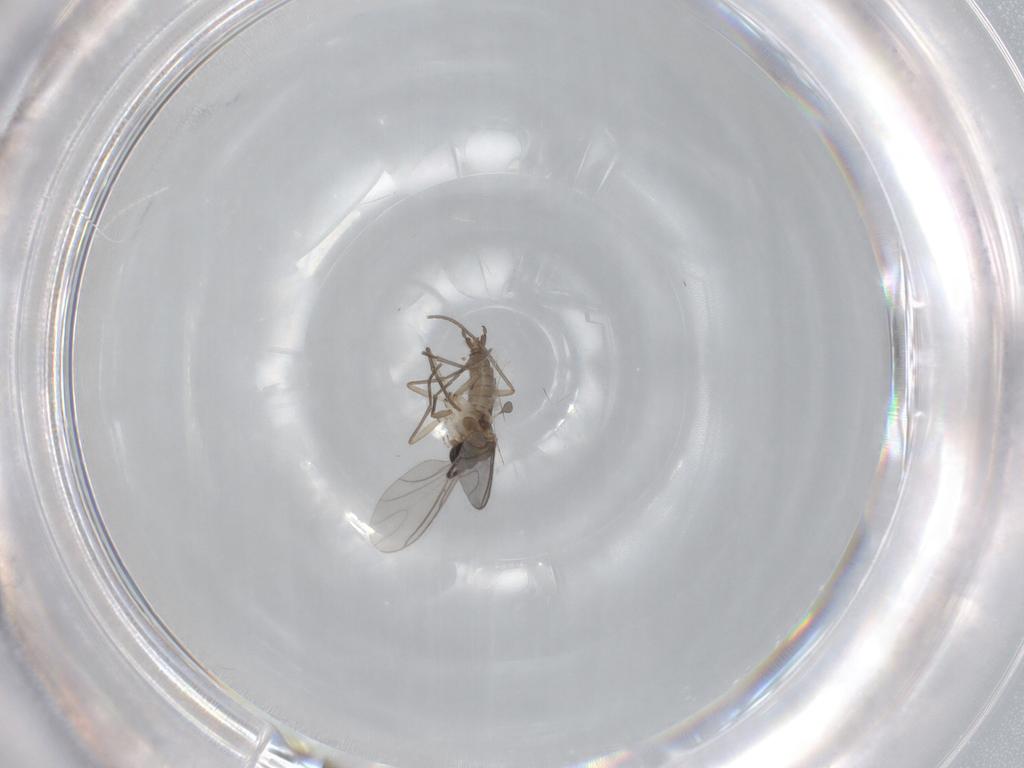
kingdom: Animalia
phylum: Arthropoda
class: Insecta
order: Diptera
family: Sciaridae
